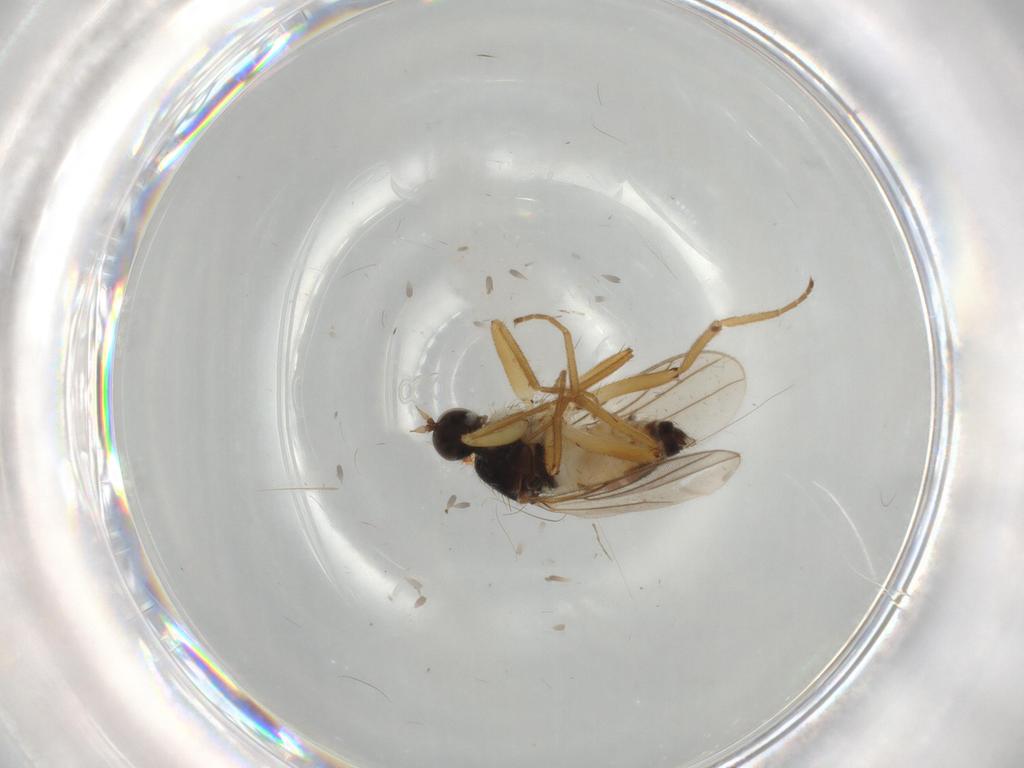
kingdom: Animalia
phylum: Arthropoda
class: Insecta
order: Diptera
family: Hybotidae
